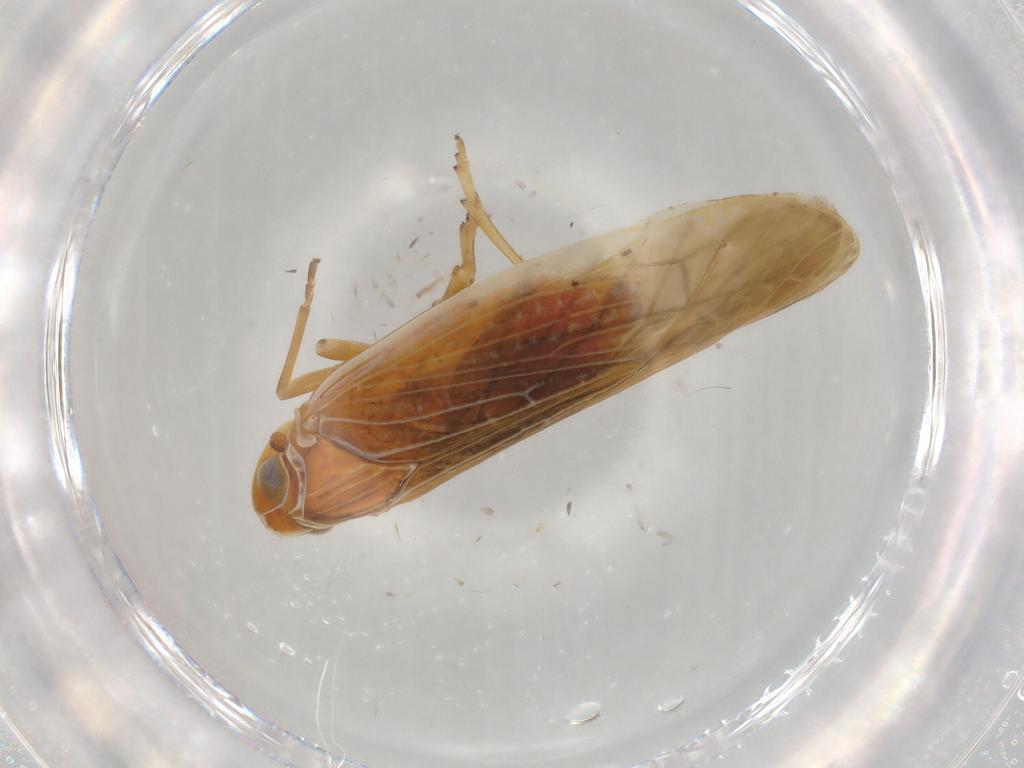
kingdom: Animalia
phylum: Arthropoda
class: Insecta
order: Hemiptera
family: Achilidae
